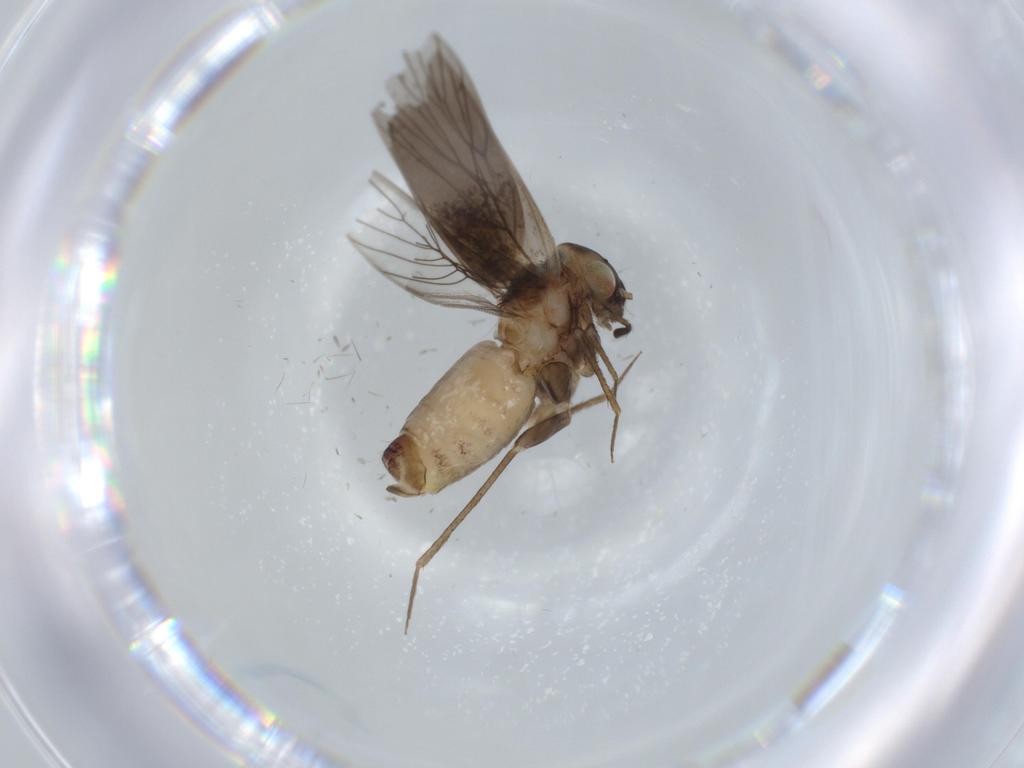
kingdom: Animalia
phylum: Arthropoda
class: Insecta
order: Psocodea
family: Lepidopsocidae
